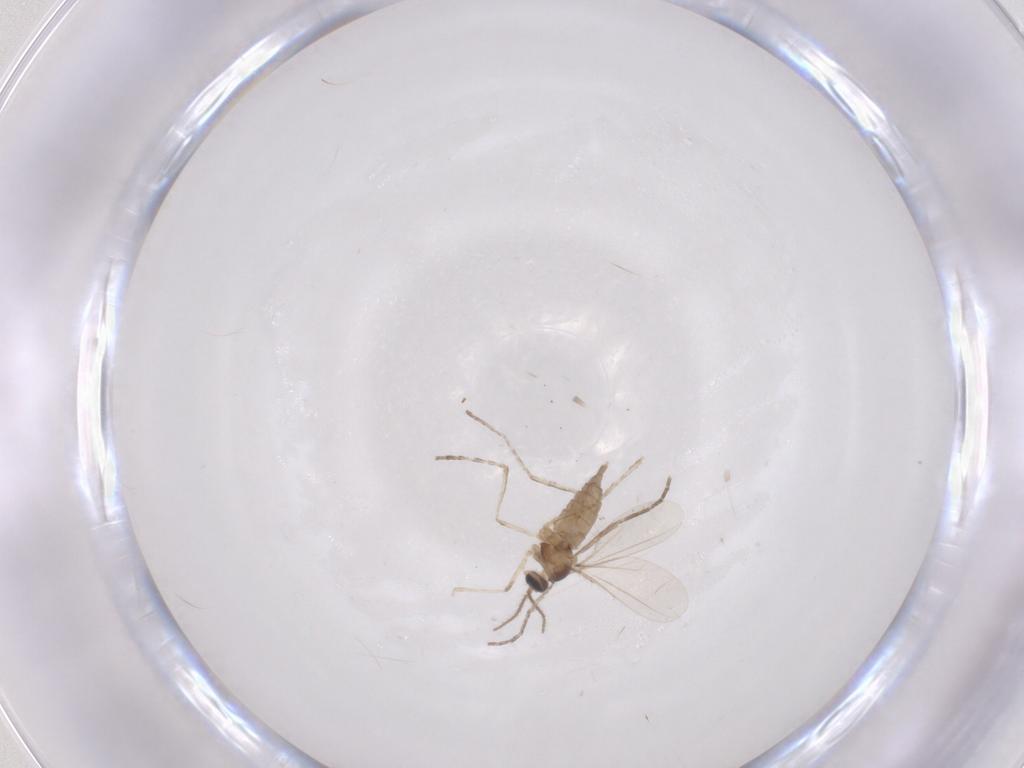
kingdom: Animalia
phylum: Arthropoda
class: Insecta
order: Diptera
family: Cecidomyiidae
